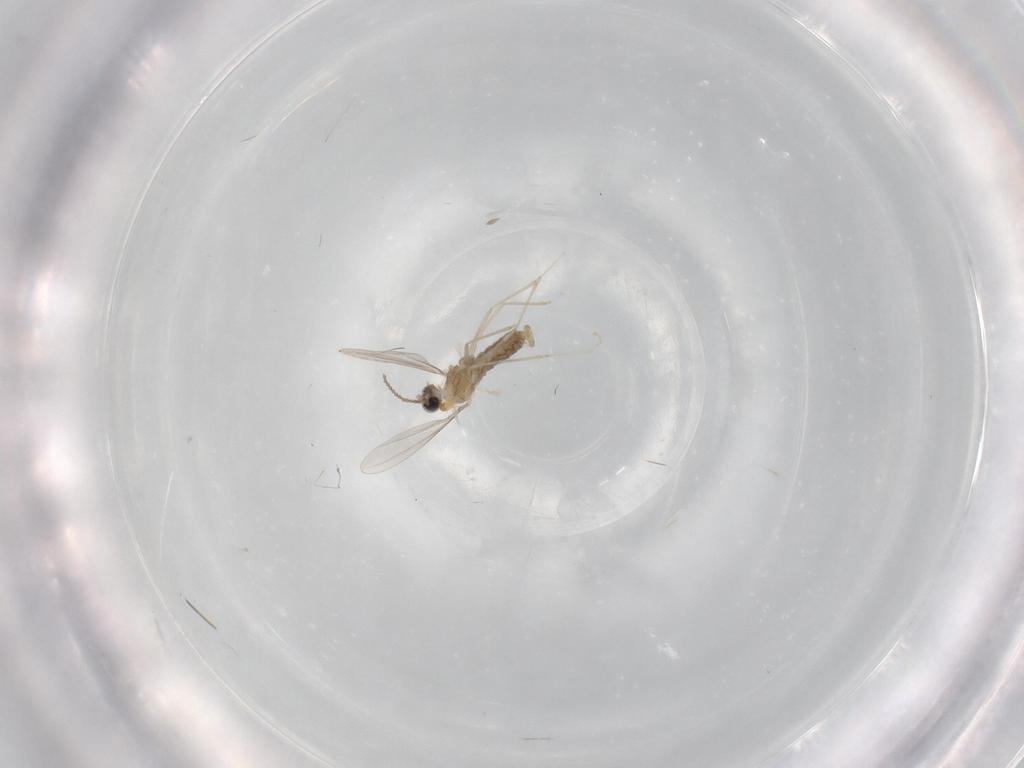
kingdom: Animalia
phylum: Arthropoda
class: Insecta
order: Diptera
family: Cecidomyiidae
